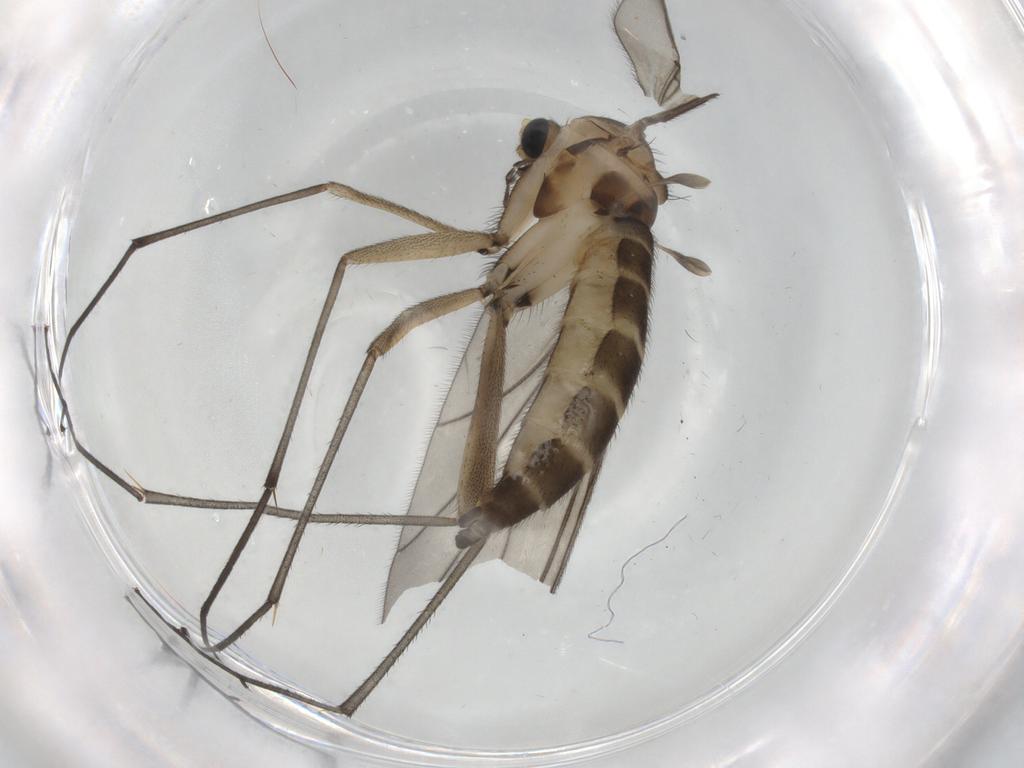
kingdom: Animalia
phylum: Arthropoda
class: Insecta
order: Diptera
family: Sciaridae
